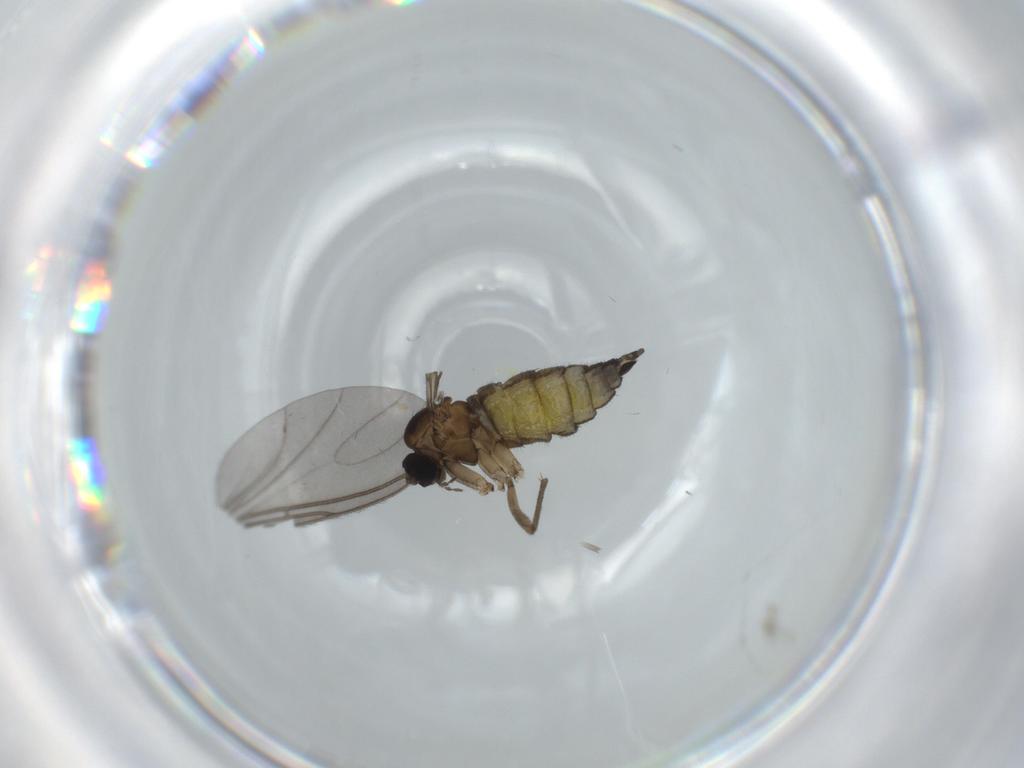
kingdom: Animalia
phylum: Arthropoda
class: Insecta
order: Diptera
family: Sciaridae
